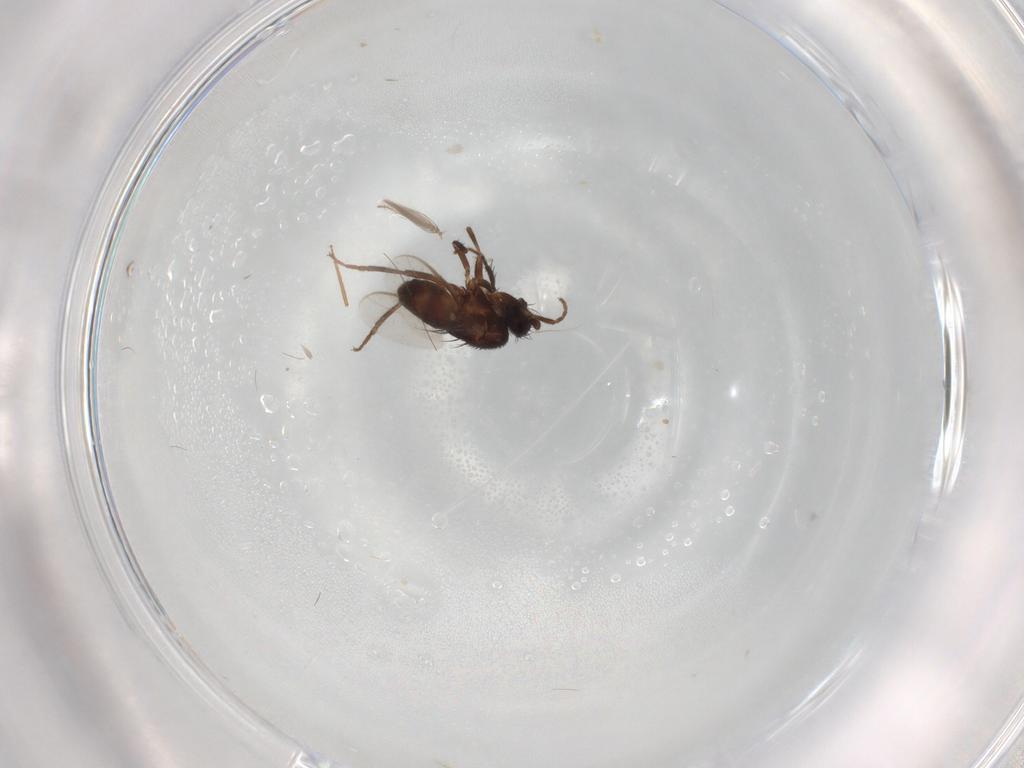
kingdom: Animalia
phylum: Arthropoda
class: Insecta
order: Diptera
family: Sphaeroceridae
